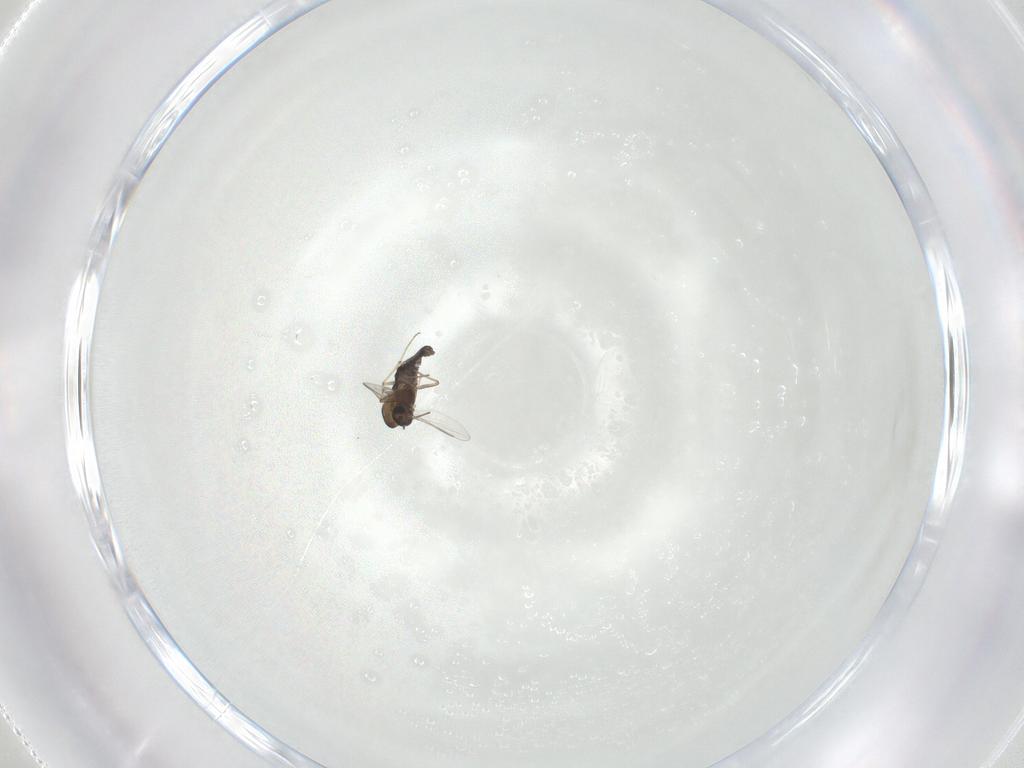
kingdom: Animalia
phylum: Arthropoda
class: Insecta
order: Diptera
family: Chironomidae
